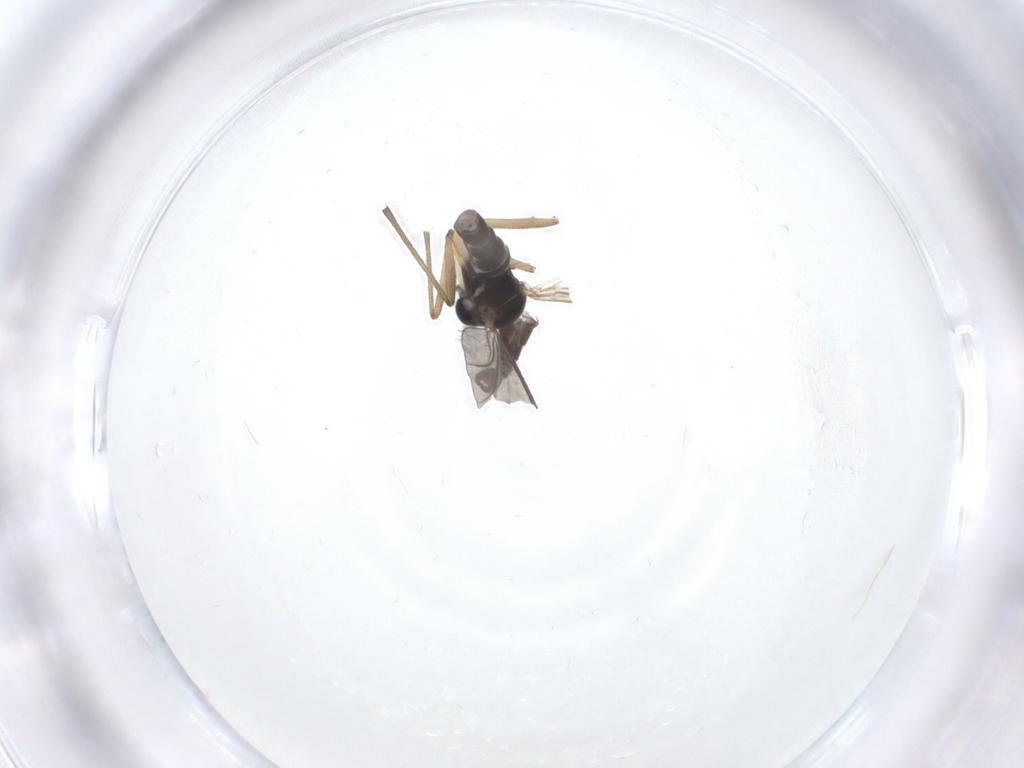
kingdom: Animalia
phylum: Arthropoda
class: Insecta
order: Diptera
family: Sciaridae
